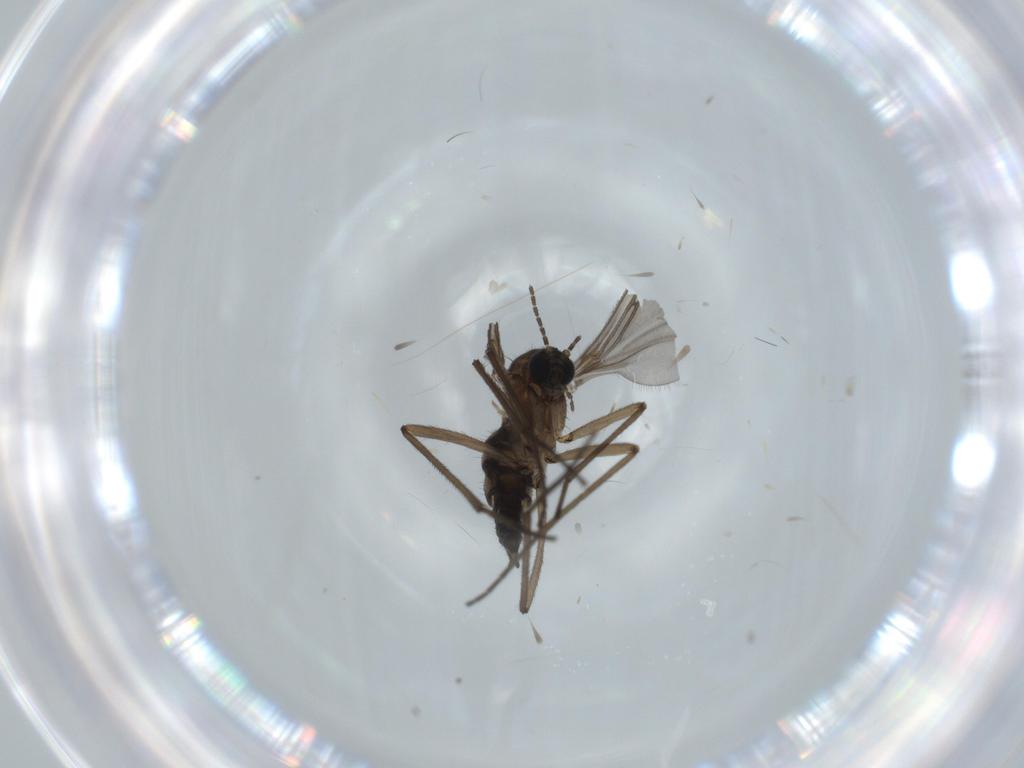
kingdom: Animalia
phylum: Arthropoda
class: Insecta
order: Diptera
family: Sciaridae
